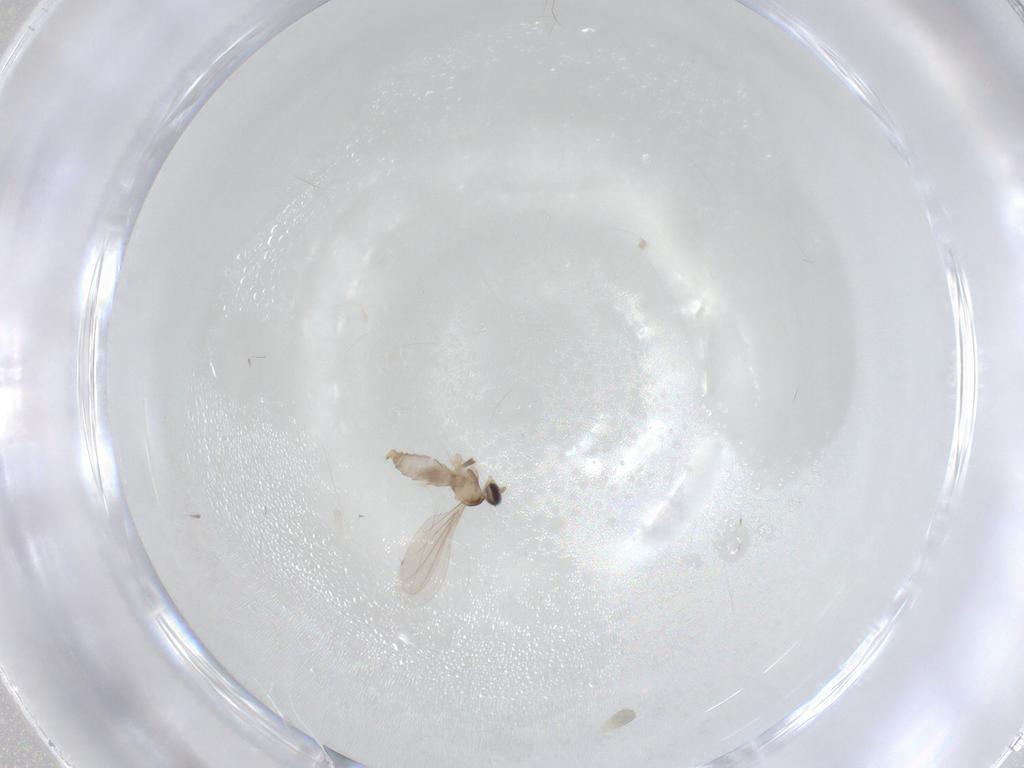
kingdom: Animalia
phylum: Arthropoda
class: Insecta
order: Diptera
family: Cecidomyiidae
